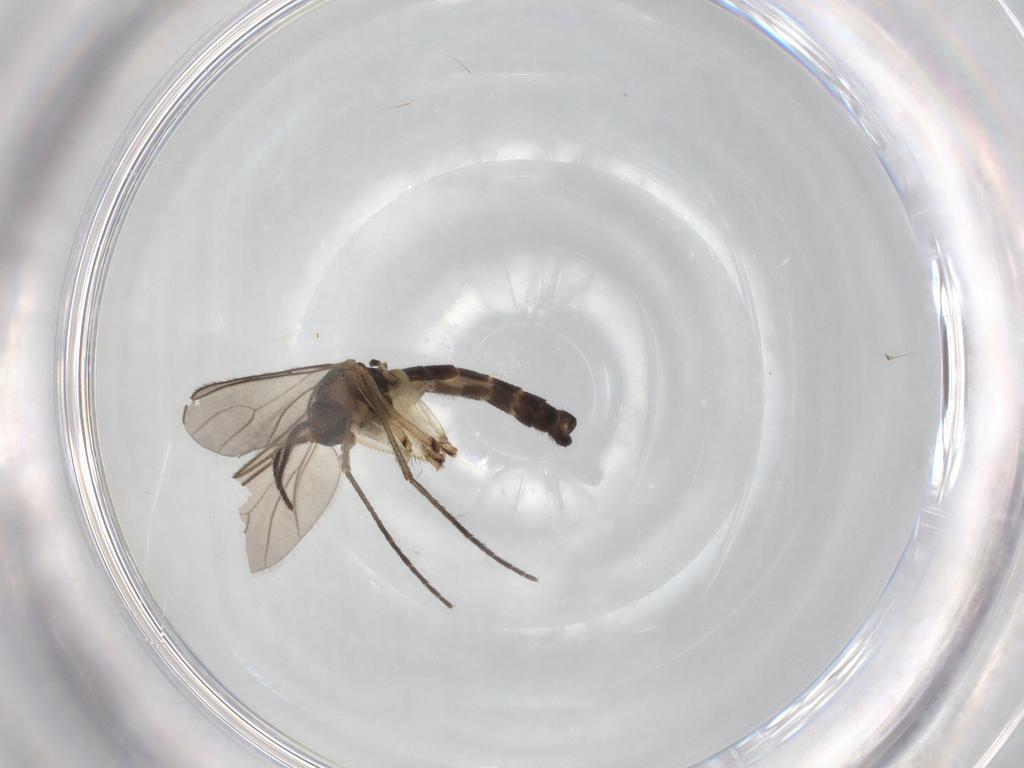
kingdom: Animalia
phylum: Arthropoda
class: Insecta
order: Diptera
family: Sciaridae
